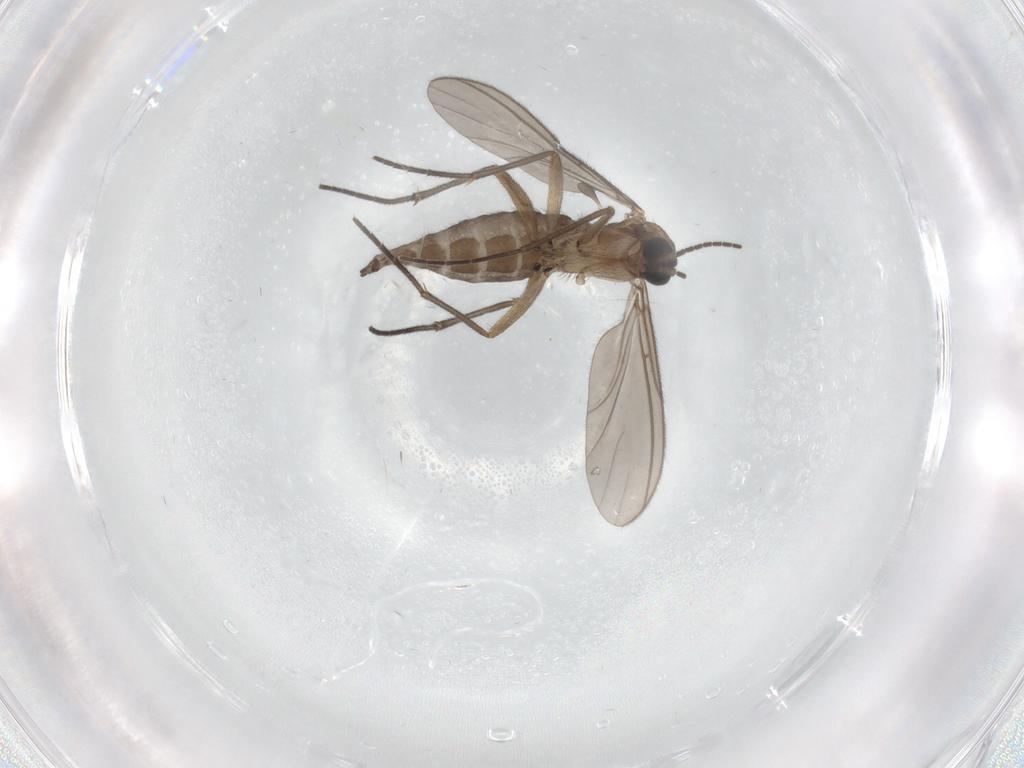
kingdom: Animalia
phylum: Arthropoda
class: Insecta
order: Diptera
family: Sciaridae
